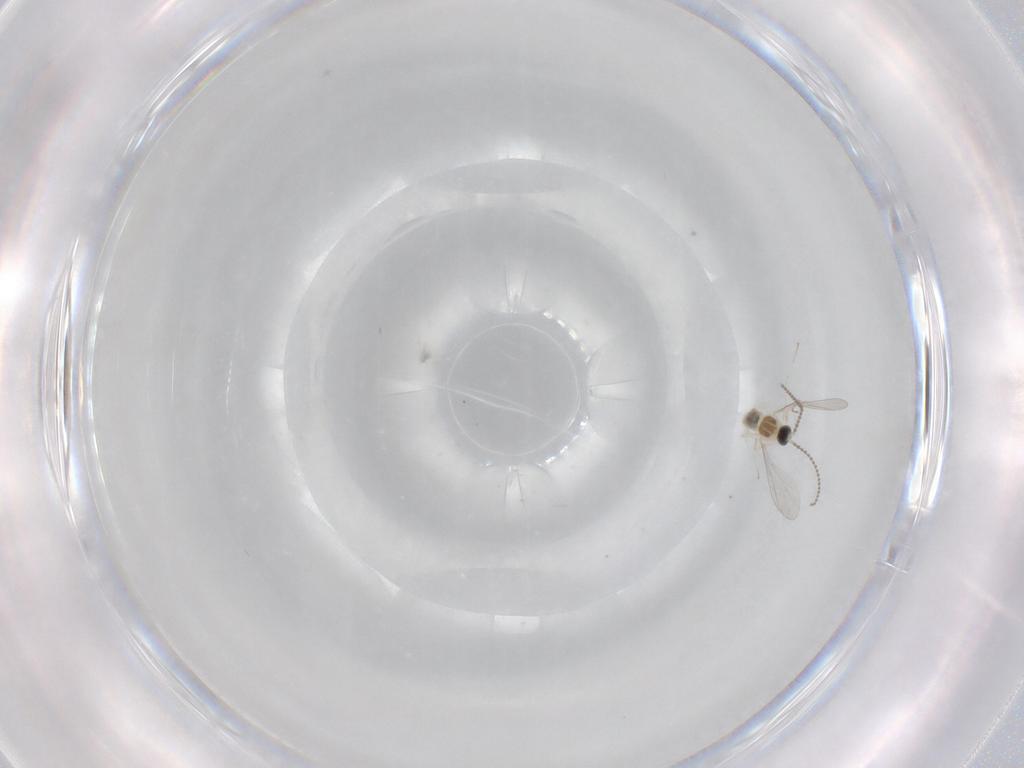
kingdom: Animalia
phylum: Arthropoda
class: Insecta
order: Diptera
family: Cecidomyiidae
